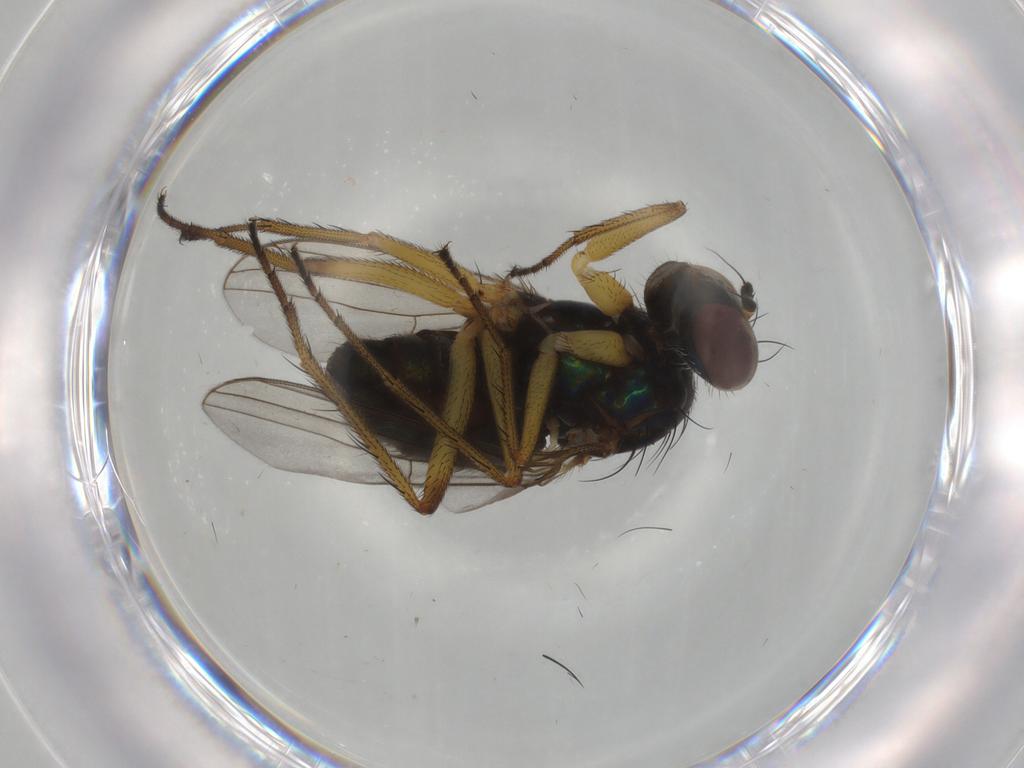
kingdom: Animalia
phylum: Arthropoda
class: Insecta
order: Diptera
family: Dolichopodidae
